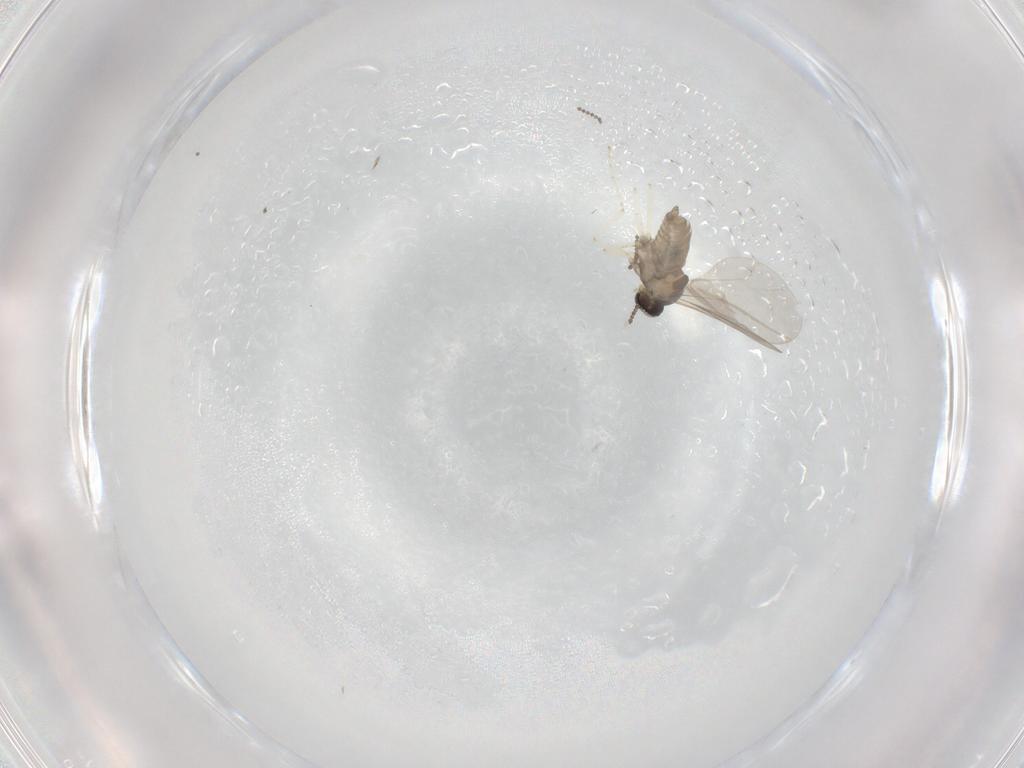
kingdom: Animalia
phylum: Arthropoda
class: Insecta
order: Diptera
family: Cecidomyiidae
